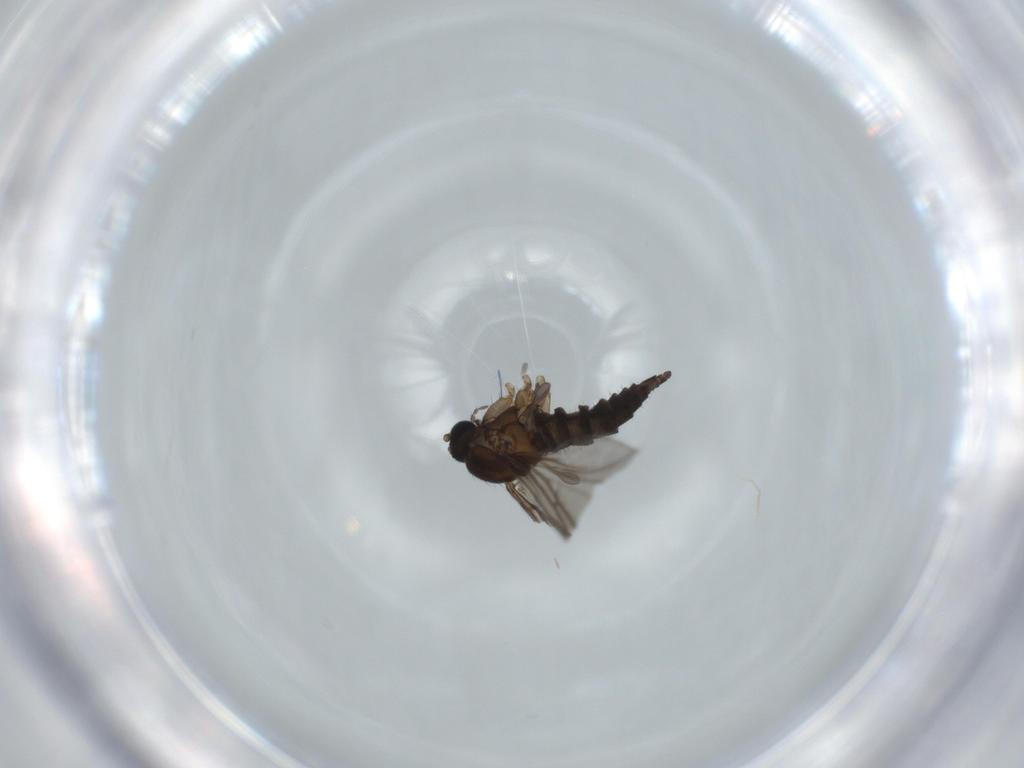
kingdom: Animalia
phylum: Arthropoda
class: Insecta
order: Diptera
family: Sciaridae
